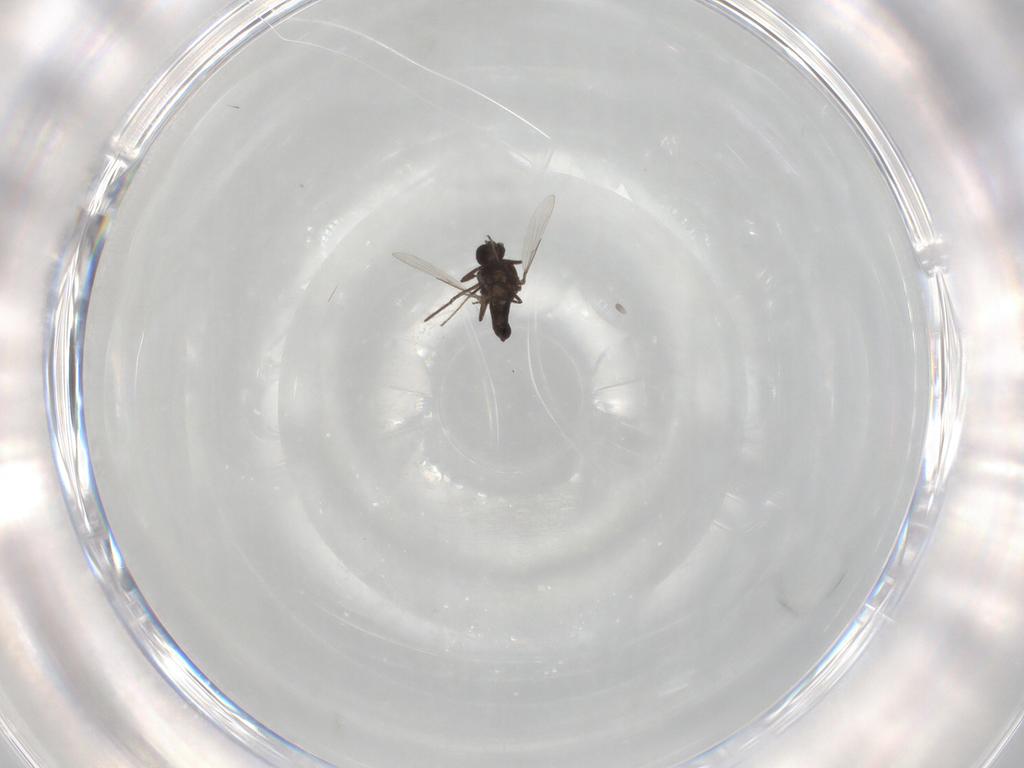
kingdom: Animalia
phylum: Arthropoda
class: Insecta
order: Diptera
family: Ceratopogonidae
